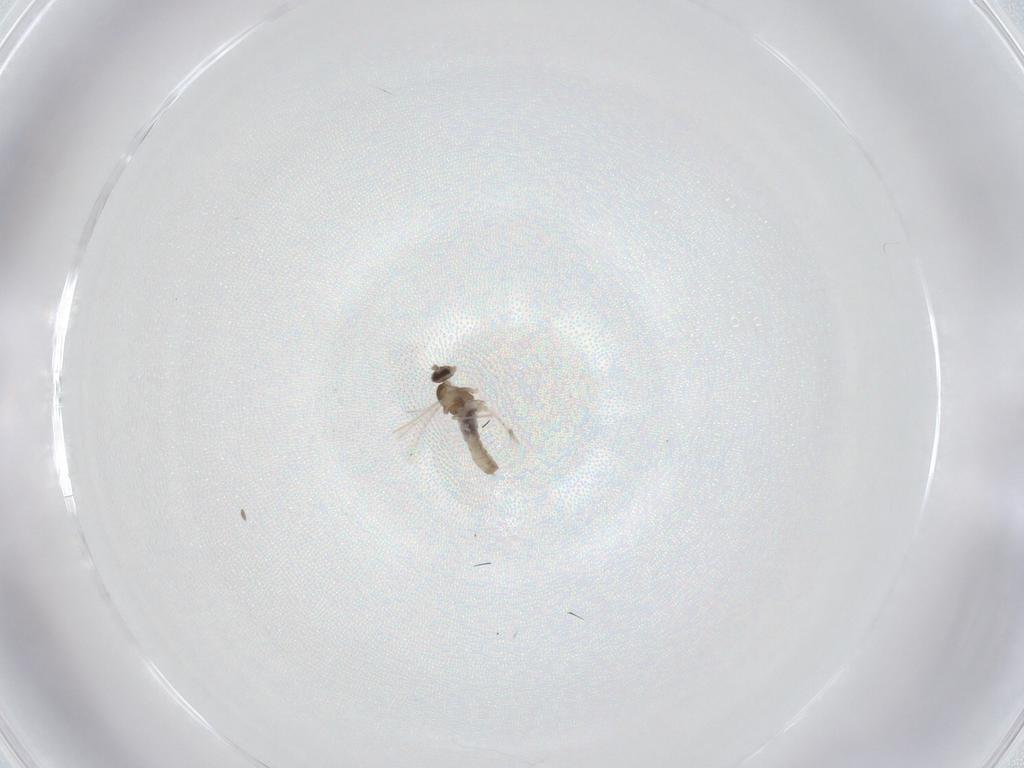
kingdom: Animalia
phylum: Arthropoda
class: Insecta
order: Diptera
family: Cecidomyiidae
